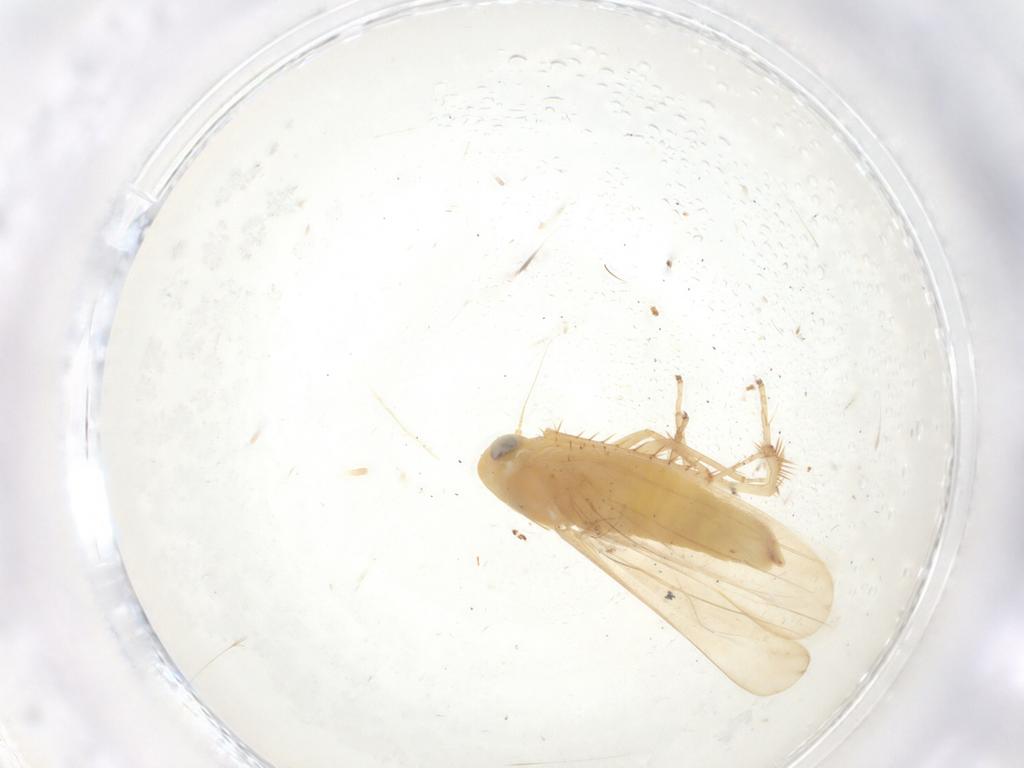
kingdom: Animalia
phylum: Arthropoda
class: Insecta
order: Hemiptera
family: Cicadellidae
